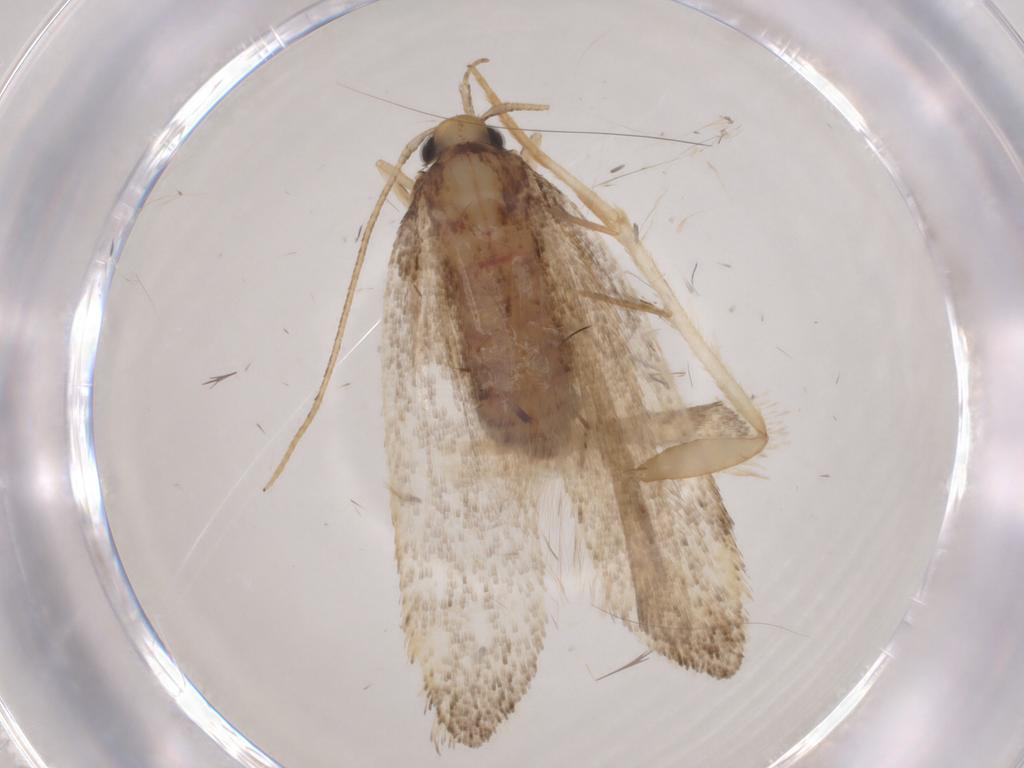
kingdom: Animalia
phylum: Arthropoda
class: Insecta
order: Lepidoptera
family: Lecithoceridae
